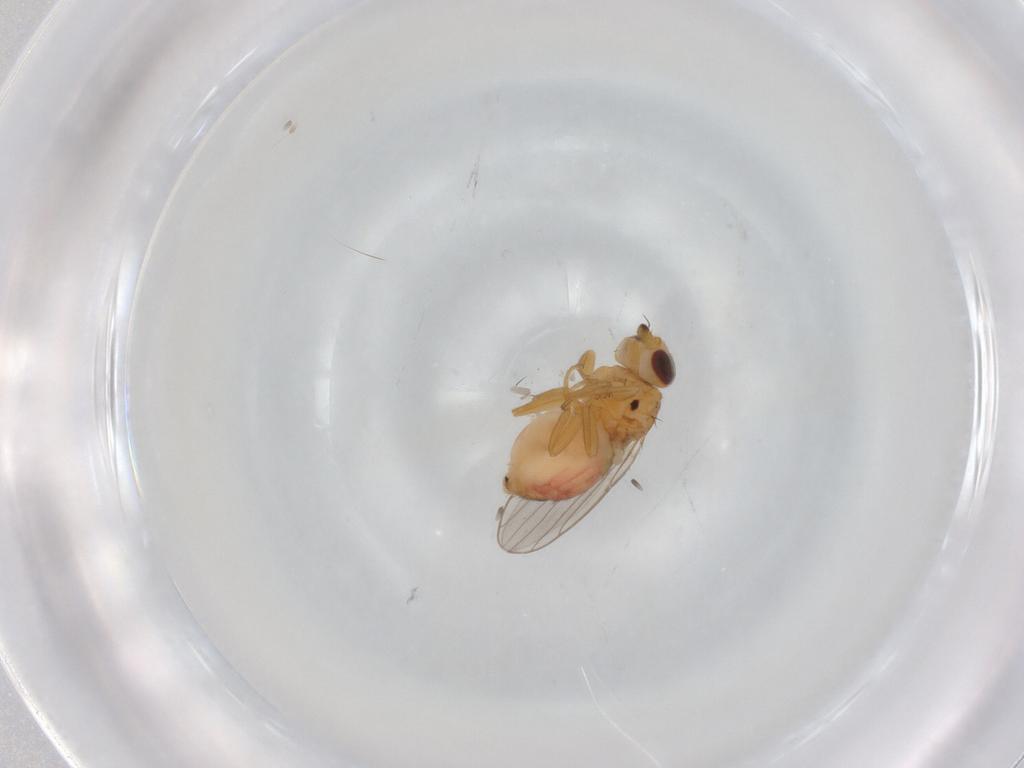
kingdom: Animalia
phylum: Arthropoda
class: Insecta
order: Diptera
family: Chloropidae
